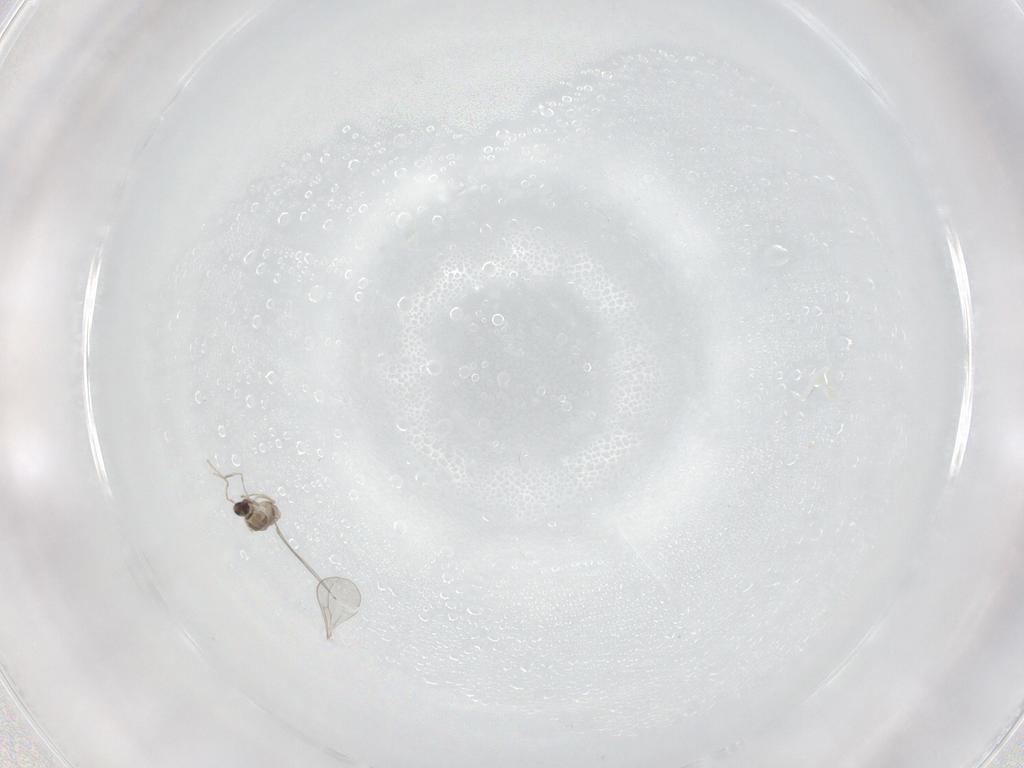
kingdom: Animalia
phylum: Arthropoda
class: Insecta
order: Diptera
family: Cecidomyiidae
